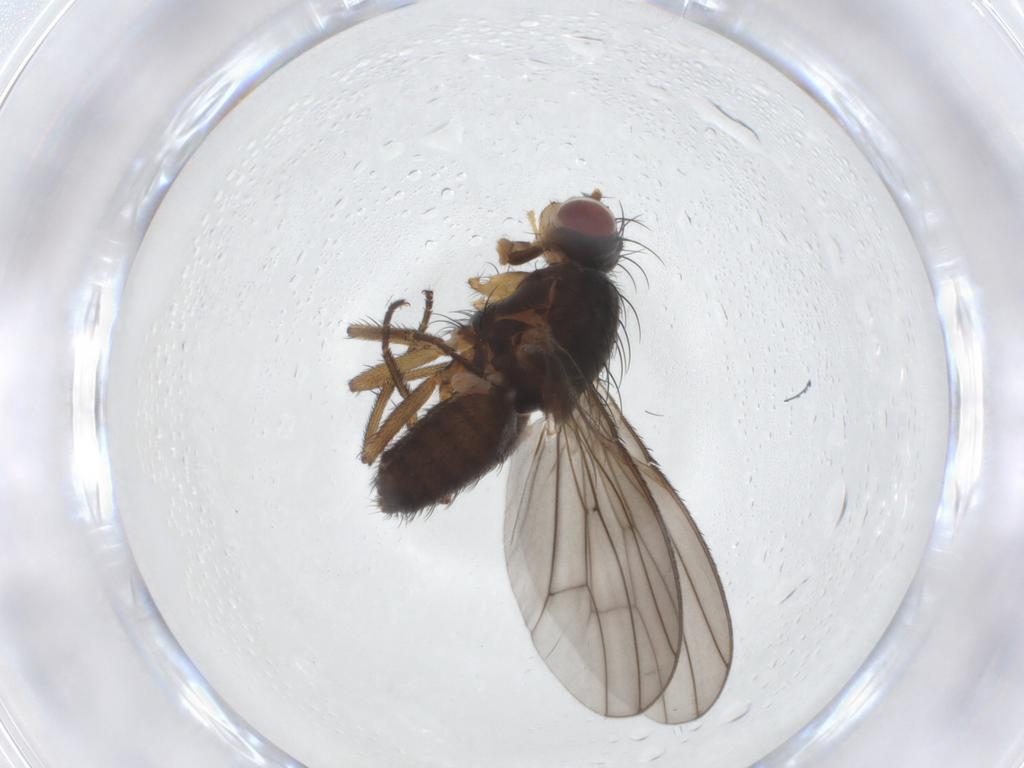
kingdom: Animalia
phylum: Arthropoda
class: Insecta
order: Diptera
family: Heleomyzidae
